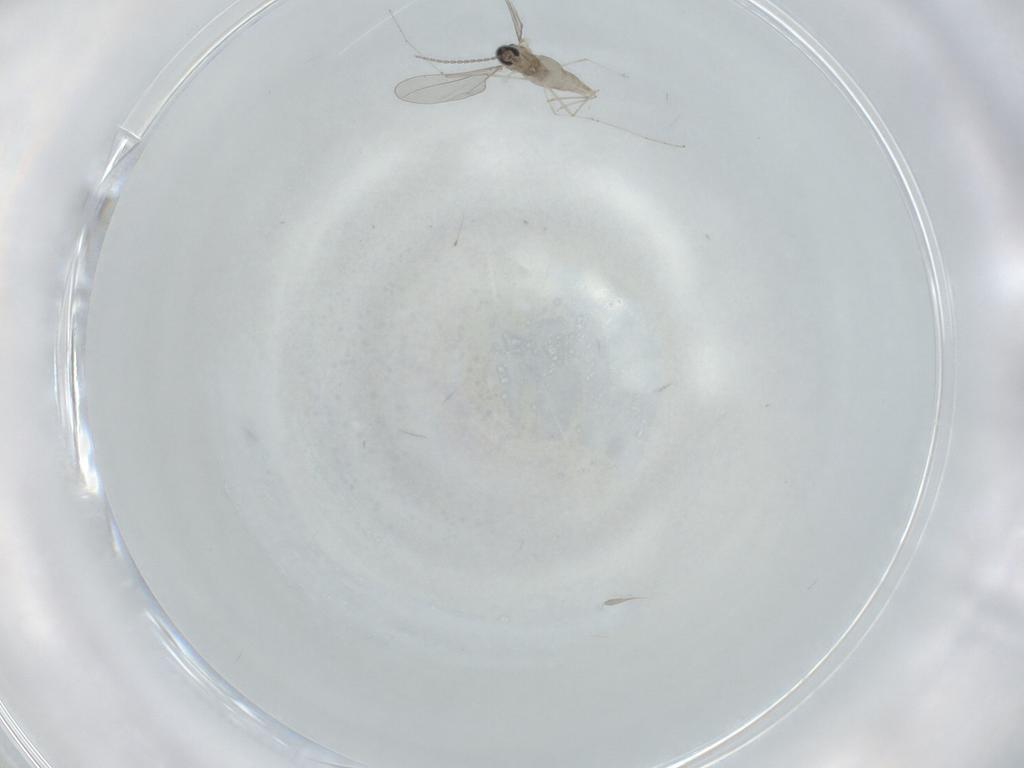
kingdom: Animalia
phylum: Arthropoda
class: Insecta
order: Diptera
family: Cecidomyiidae
